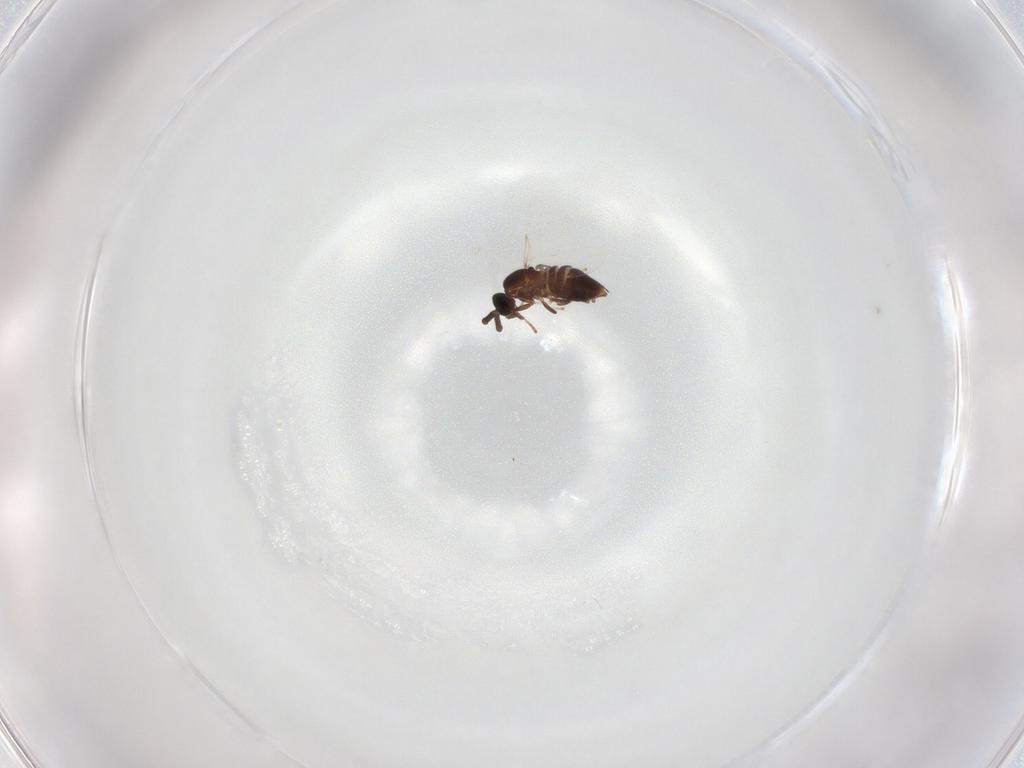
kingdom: Animalia
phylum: Arthropoda
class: Insecta
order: Diptera
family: Scatopsidae
